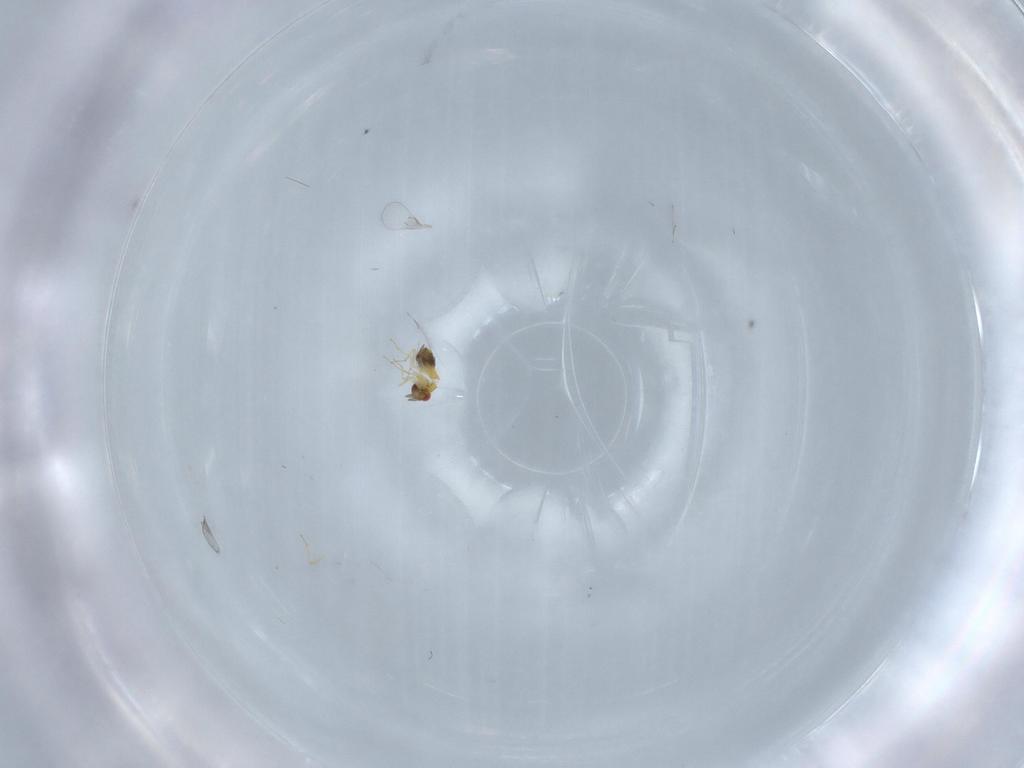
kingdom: Animalia
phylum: Arthropoda
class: Insecta
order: Hymenoptera
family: Trichogrammatidae
